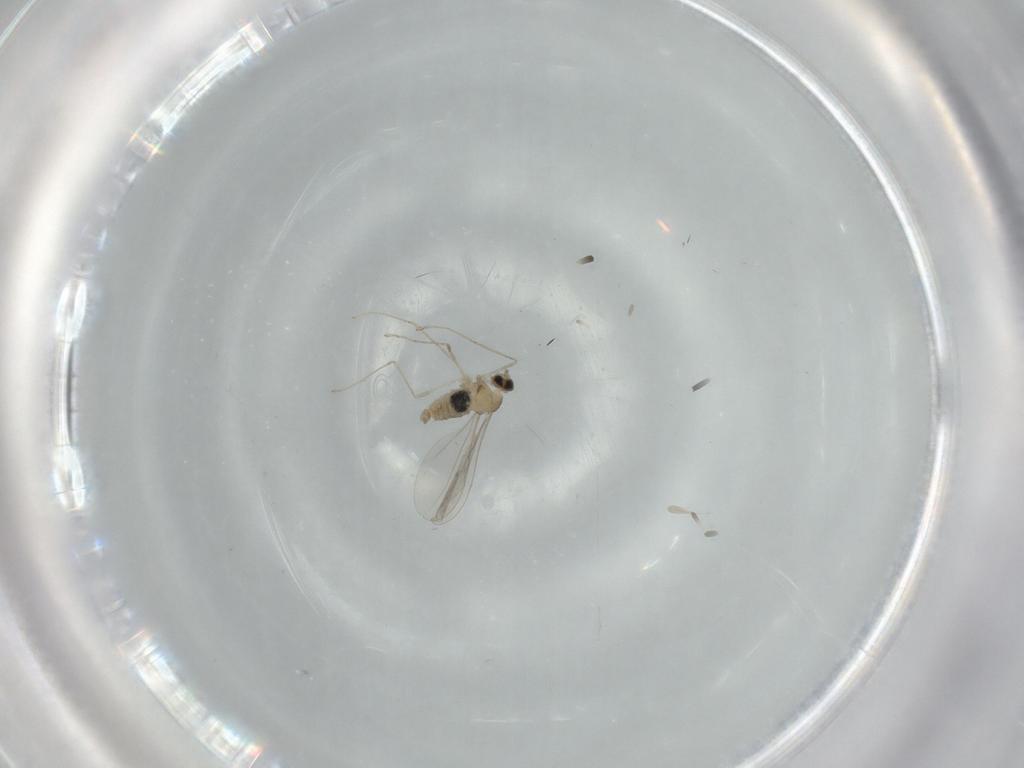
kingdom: Animalia
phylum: Arthropoda
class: Insecta
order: Diptera
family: Cecidomyiidae
